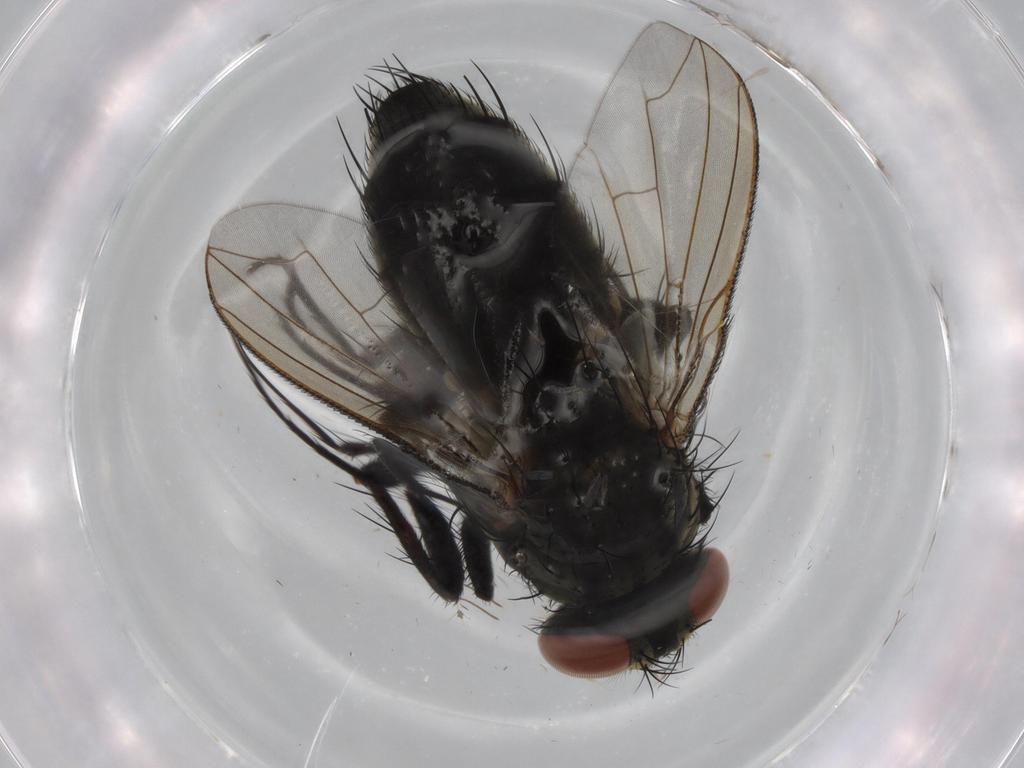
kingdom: Animalia
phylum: Arthropoda
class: Insecta
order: Diptera
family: Sarcophagidae
